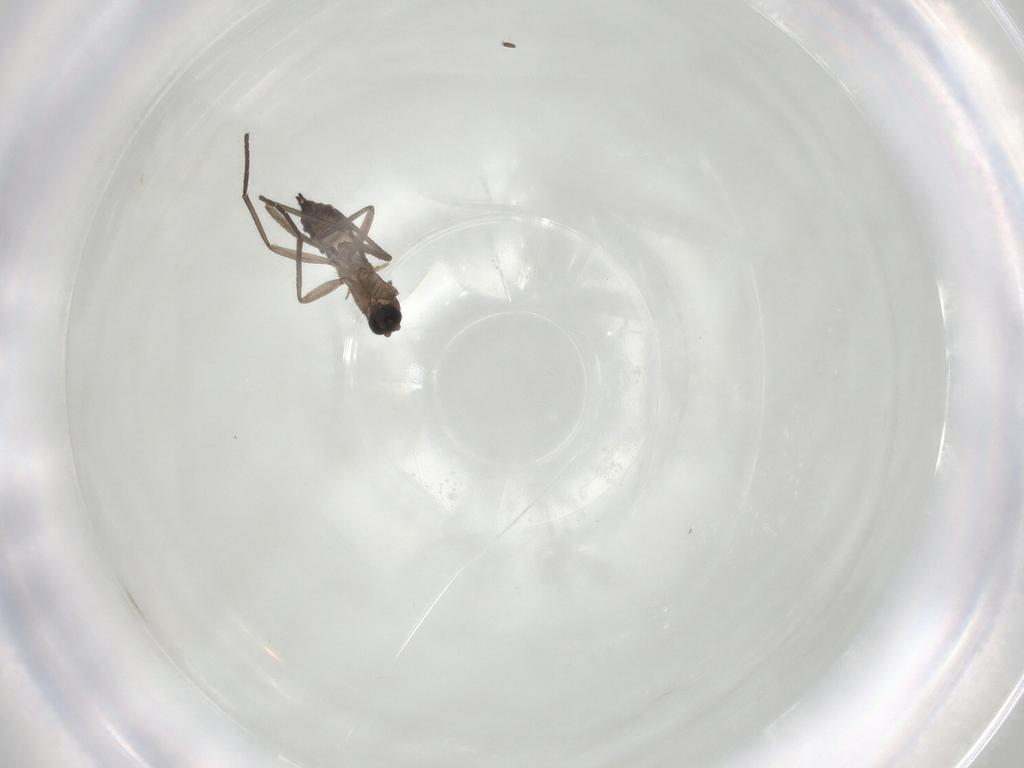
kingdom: Animalia
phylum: Arthropoda
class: Insecta
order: Diptera
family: Sciaridae
